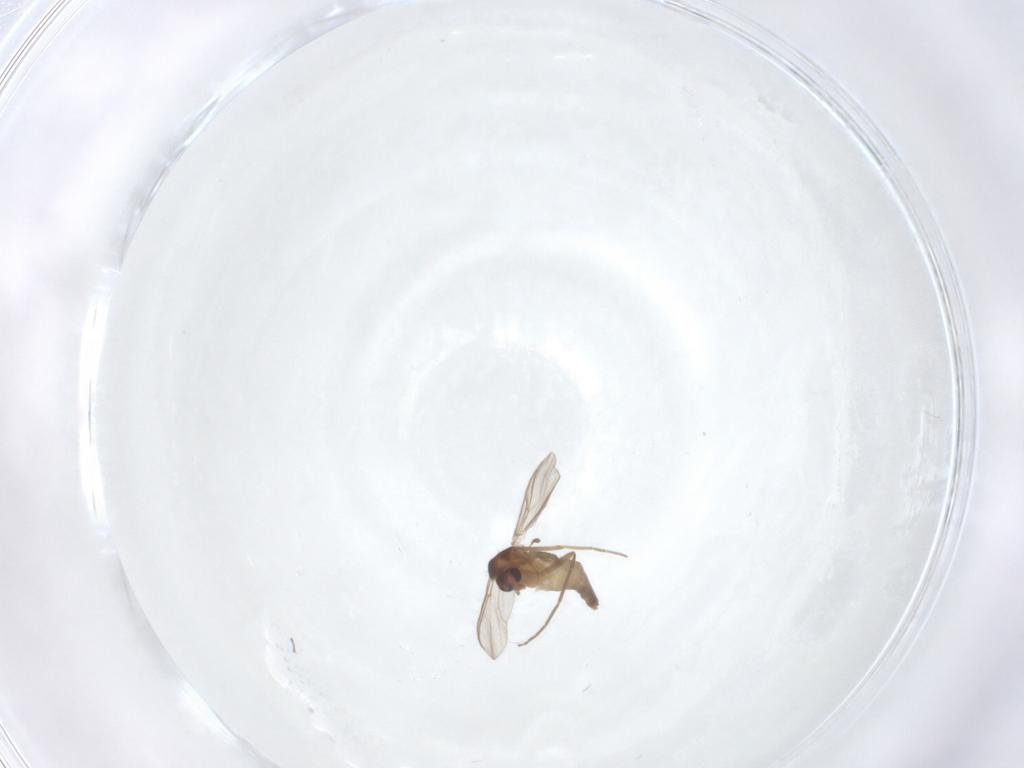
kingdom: Animalia
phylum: Arthropoda
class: Insecta
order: Diptera
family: Chironomidae
